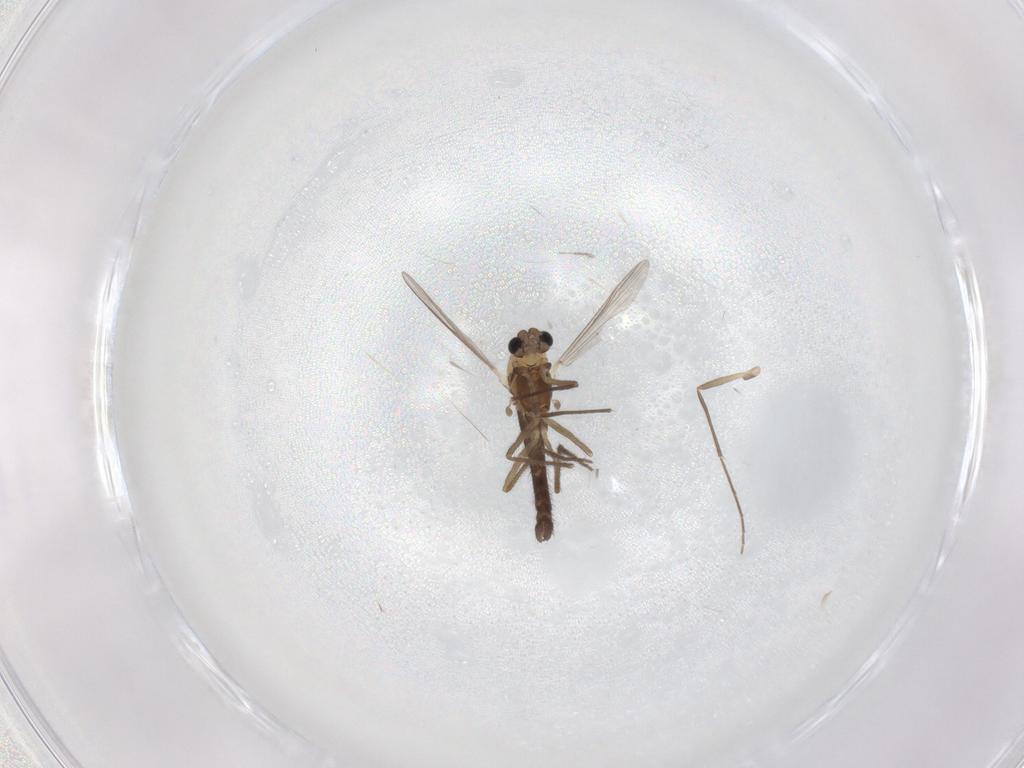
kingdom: Animalia
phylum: Arthropoda
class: Insecta
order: Diptera
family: Chironomidae
